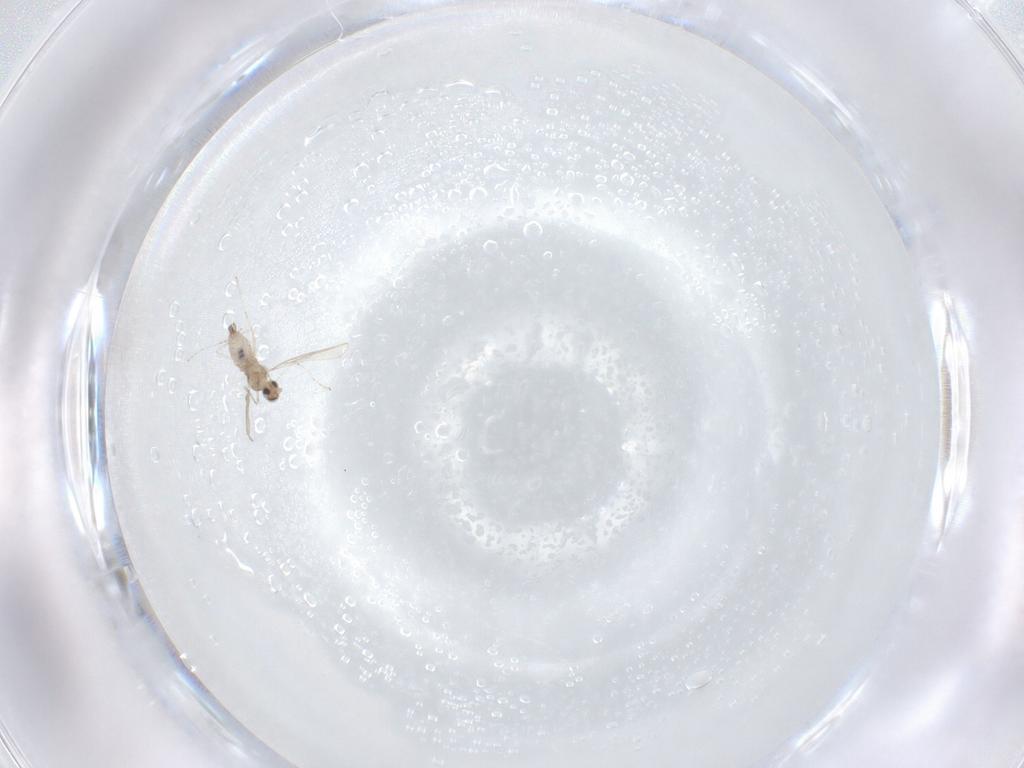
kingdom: Animalia
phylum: Arthropoda
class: Insecta
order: Diptera
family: Cecidomyiidae
